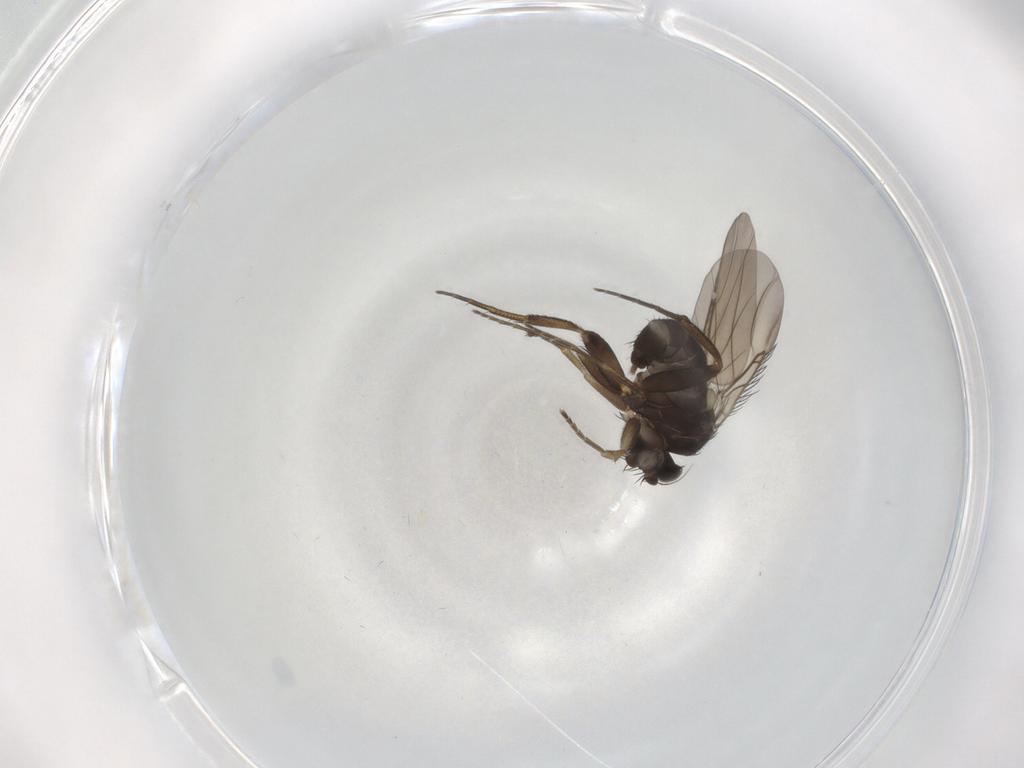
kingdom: Animalia
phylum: Arthropoda
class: Insecta
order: Diptera
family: Phoridae
